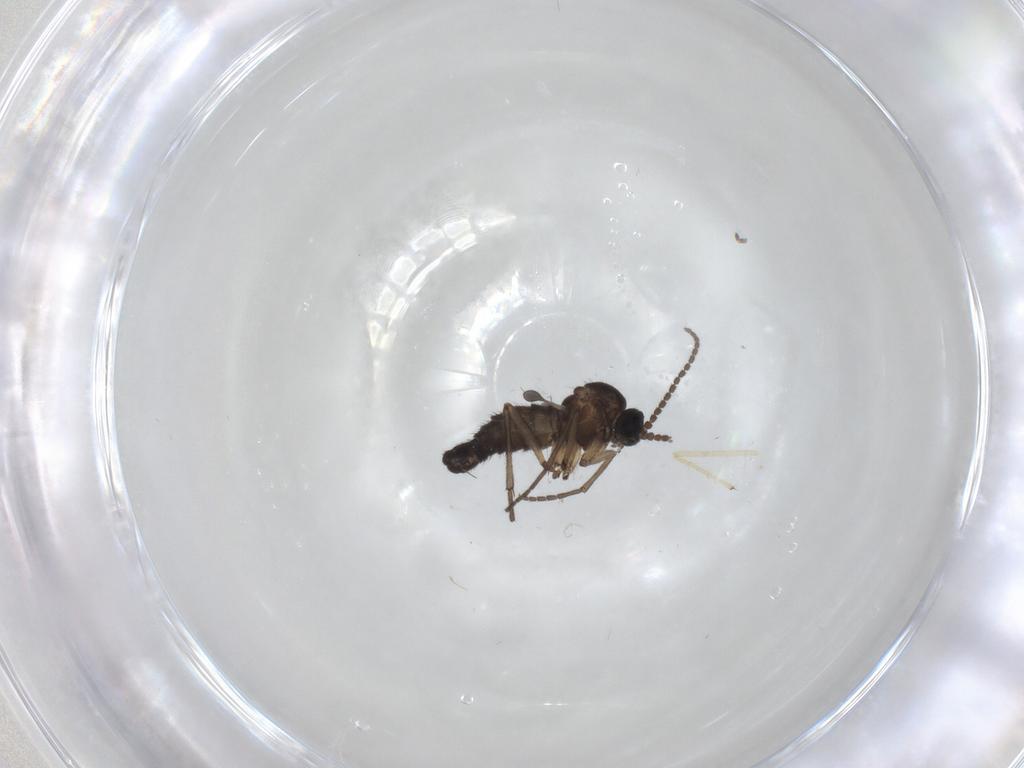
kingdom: Animalia
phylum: Arthropoda
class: Insecta
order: Diptera
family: Sciaridae
